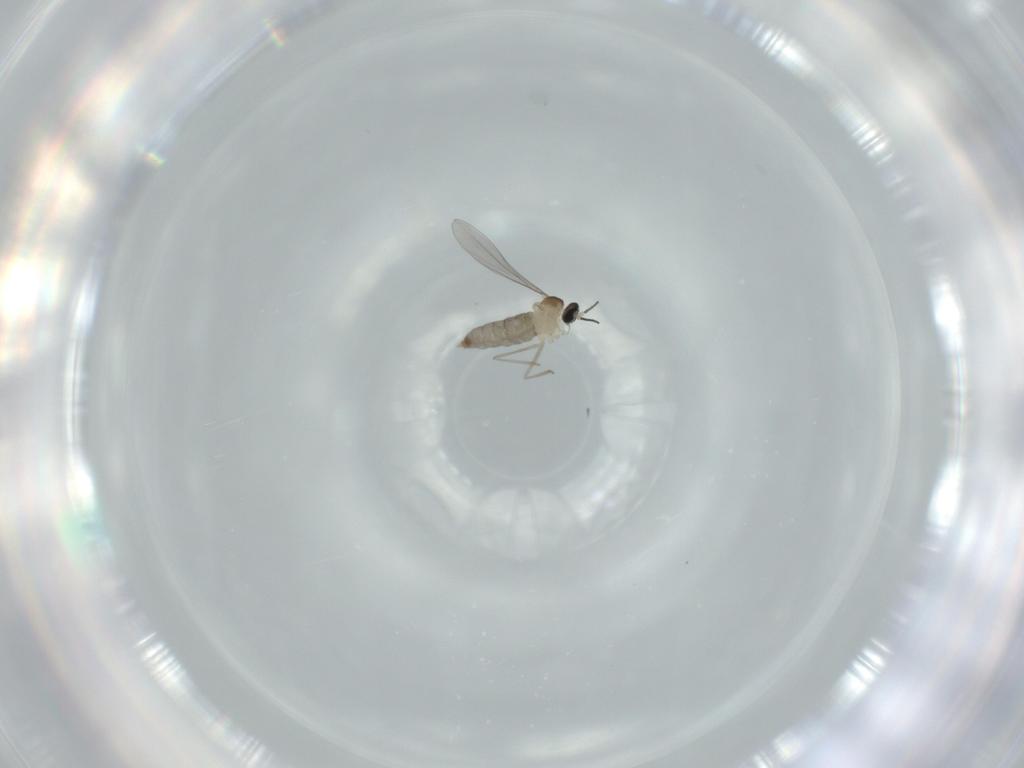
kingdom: Animalia
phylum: Arthropoda
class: Insecta
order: Diptera
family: Cecidomyiidae
